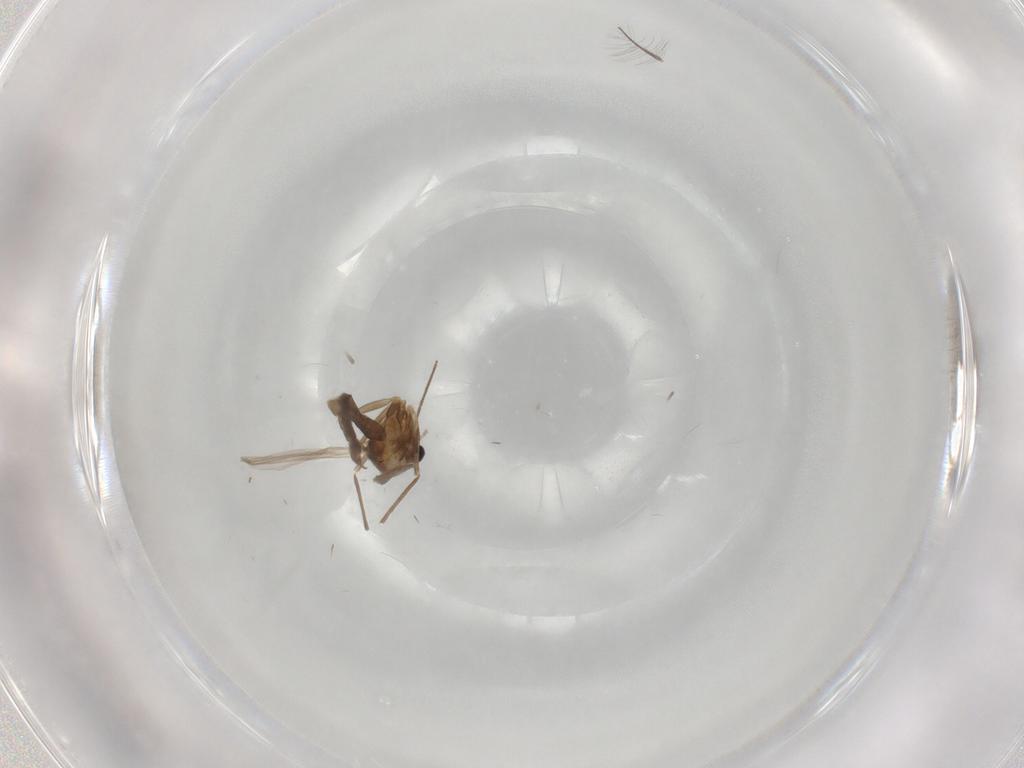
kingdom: Animalia
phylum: Arthropoda
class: Insecta
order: Diptera
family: Chironomidae
